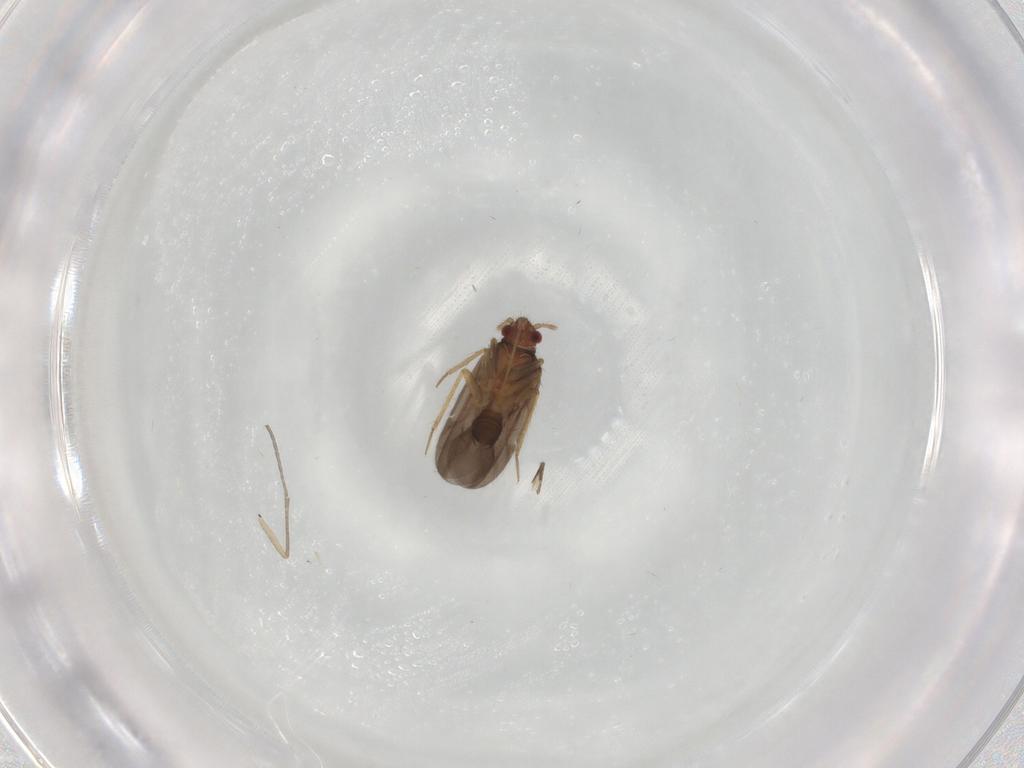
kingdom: Animalia
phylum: Arthropoda
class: Insecta
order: Hemiptera
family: Ceratocombidae
